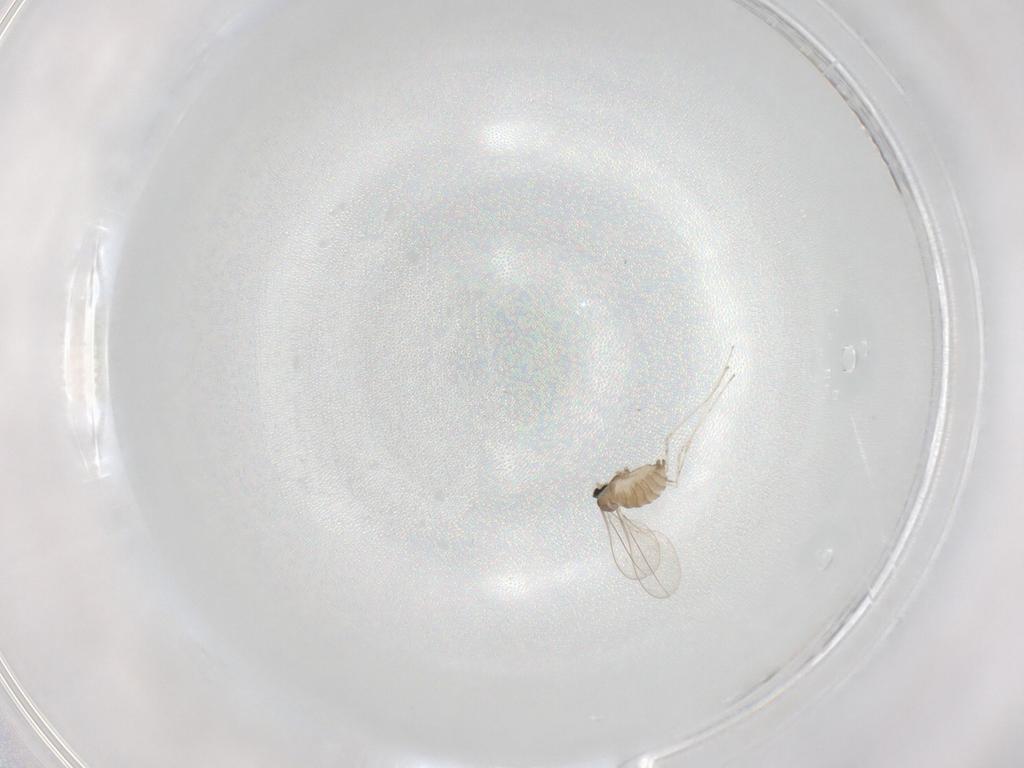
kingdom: Animalia
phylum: Arthropoda
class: Insecta
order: Diptera
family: Cecidomyiidae
